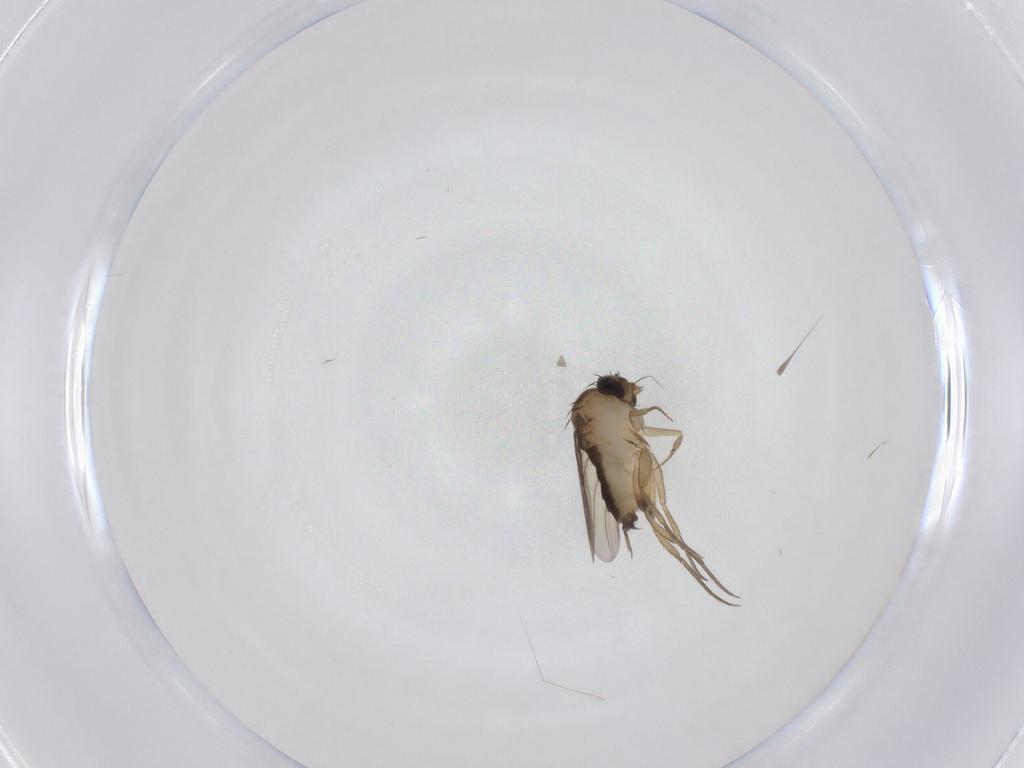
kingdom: Animalia
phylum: Arthropoda
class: Insecta
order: Diptera
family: Phoridae
